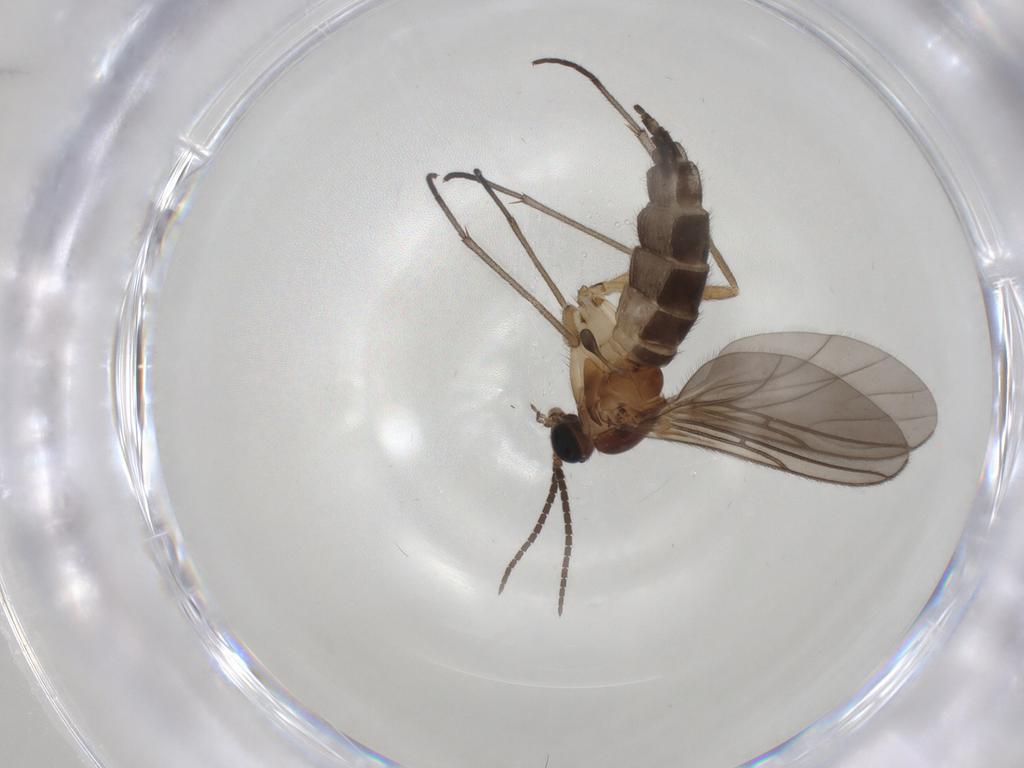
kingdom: Animalia
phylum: Arthropoda
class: Insecta
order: Diptera
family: Sciaridae
